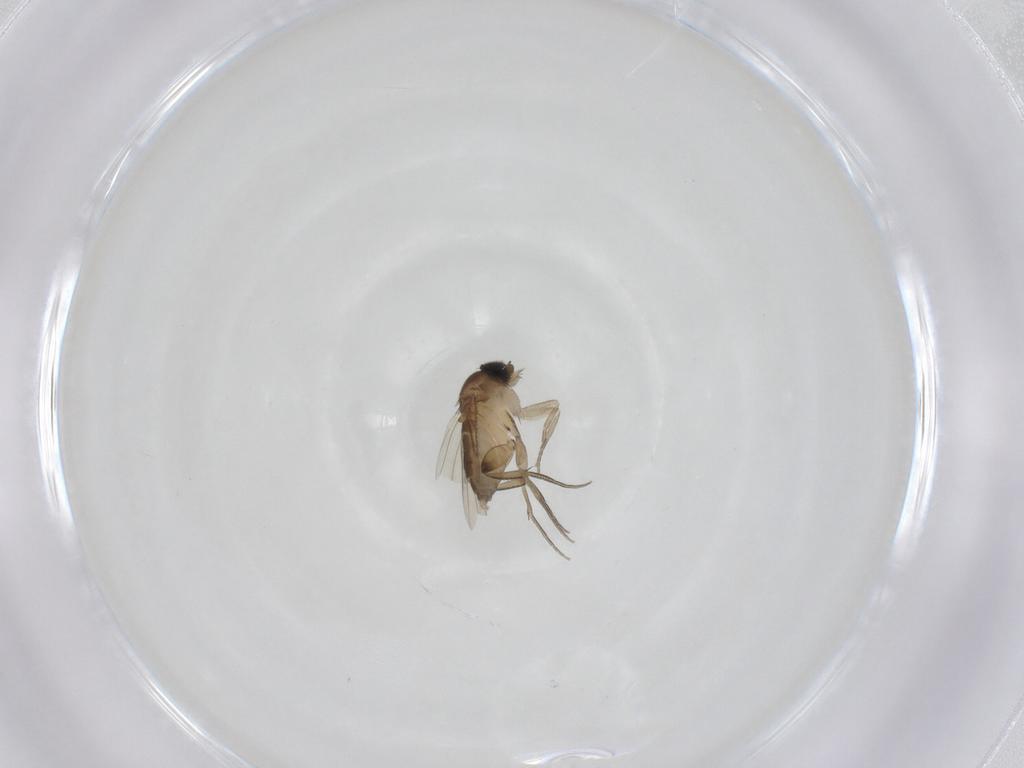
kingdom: Animalia
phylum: Arthropoda
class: Insecta
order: Diptera
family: Phoridae
